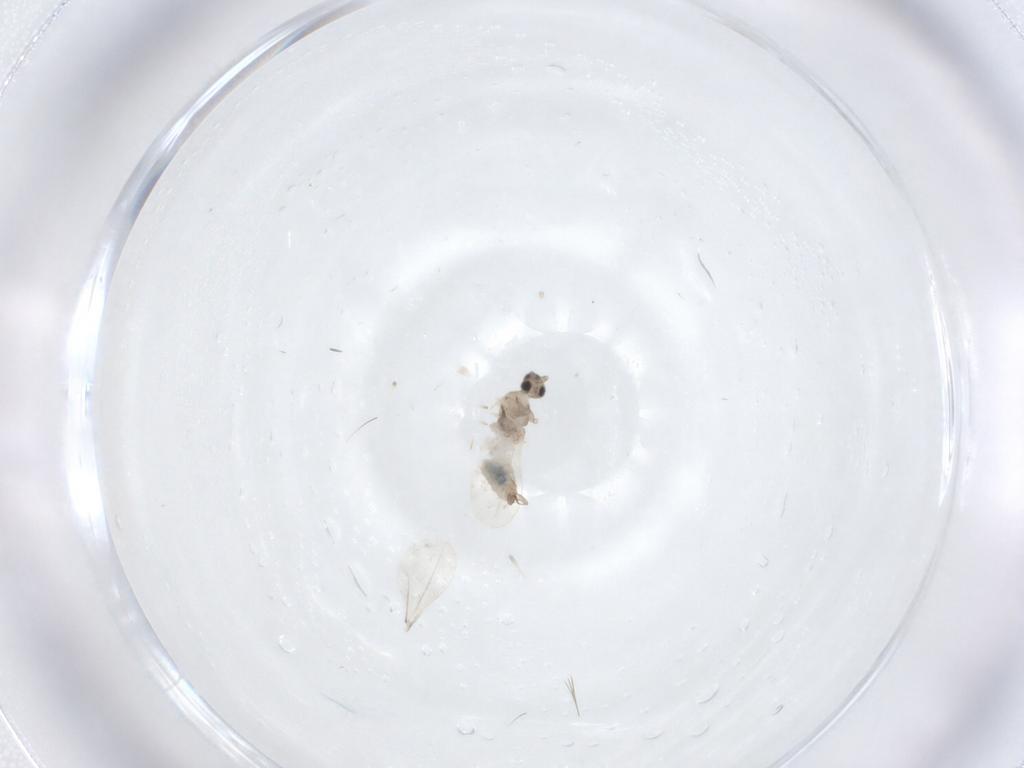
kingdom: Animalia
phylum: Arthropoda
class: Insecta
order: Diptera
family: Cecidomyiidae
